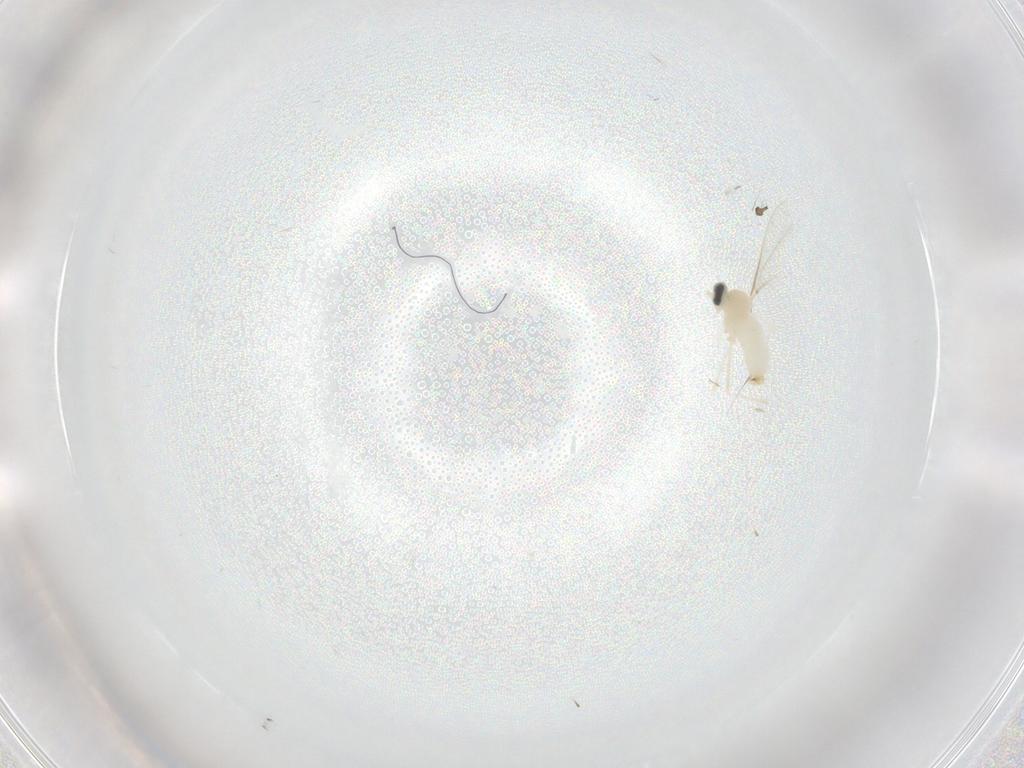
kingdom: Animalia
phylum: Arthropoda
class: Insecta
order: Diptera
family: Cecidomyiidae
